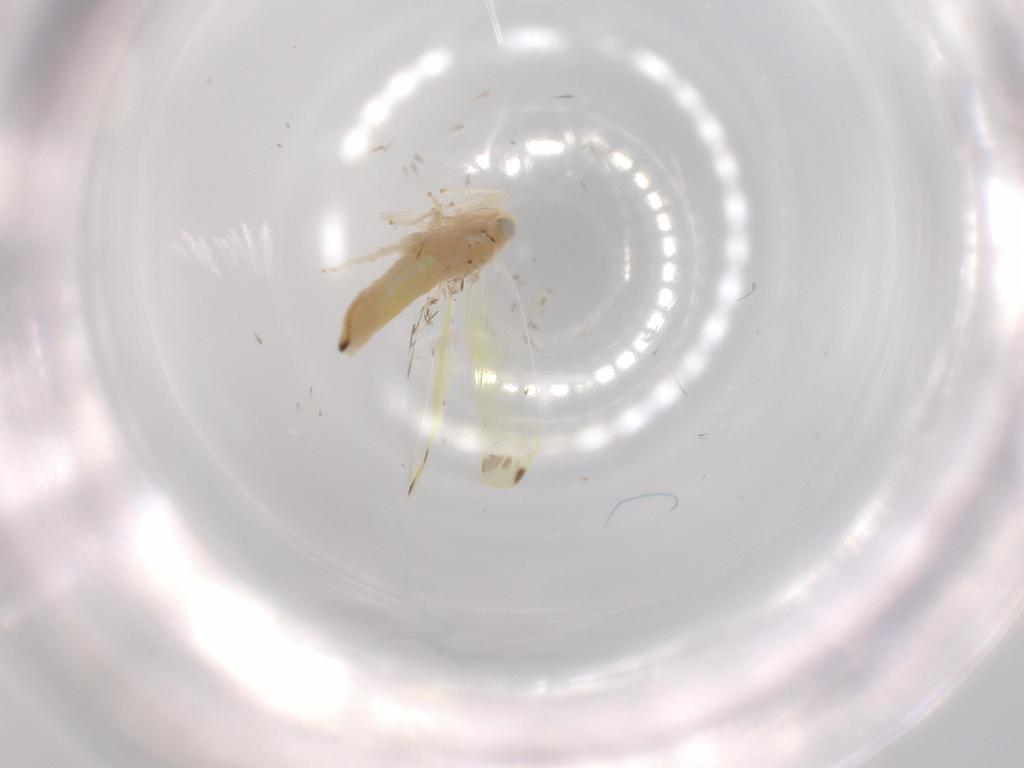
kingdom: Animalia
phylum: Arthropoda
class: Insecta
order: Hemiptera
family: Cicadellidae
